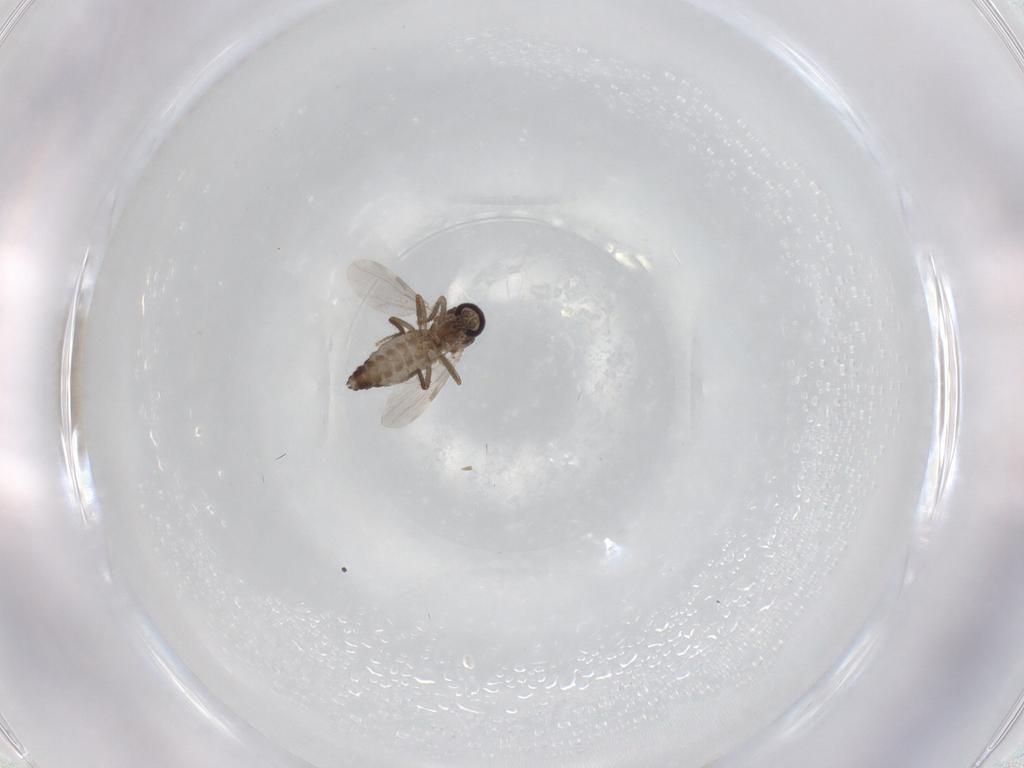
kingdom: Animalia
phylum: Arthropoda
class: Insecta
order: Diptera
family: Ceratopogonidae
